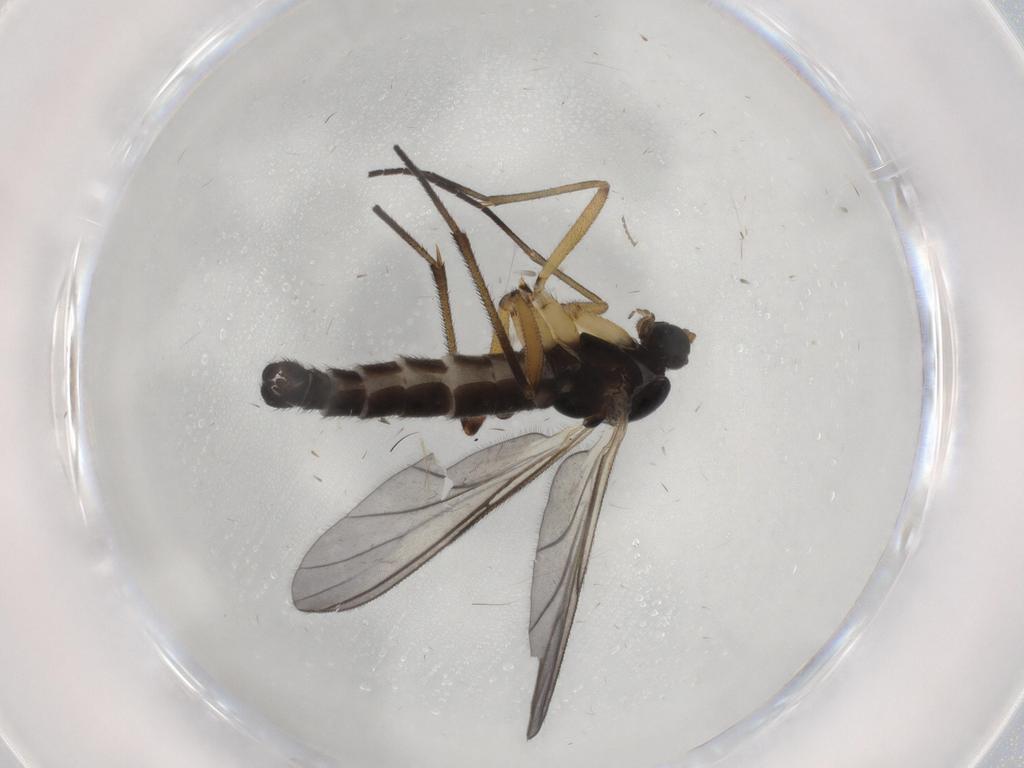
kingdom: Animalia
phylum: Arthropoda
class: Insecta
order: Diptera
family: Sciaridae
